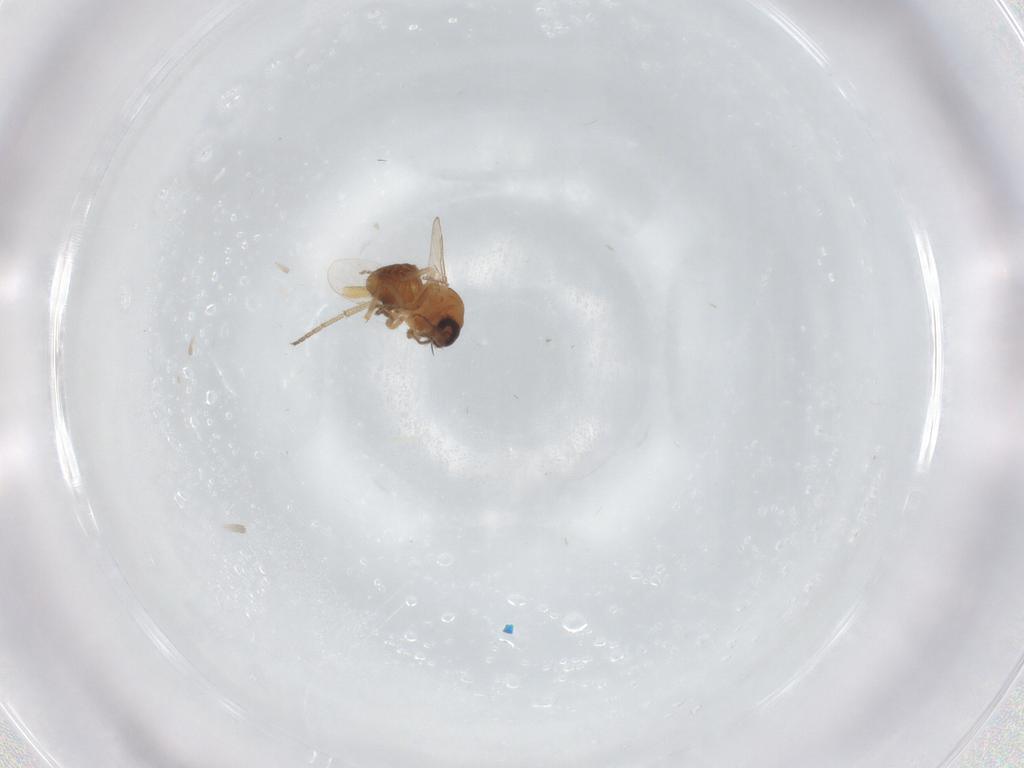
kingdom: Animalia
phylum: Arthropoda
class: Insecta
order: Diptera
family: Ceratopogonidae
